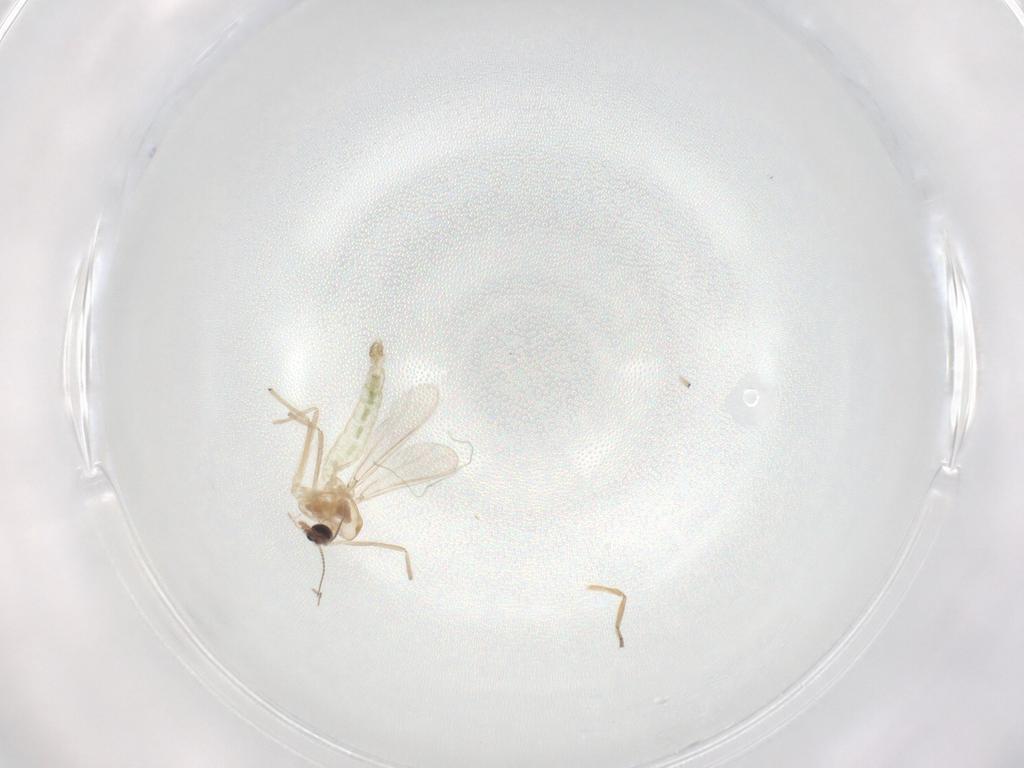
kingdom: Animalia
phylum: Arthropoda
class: Insecta
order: Diptera
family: Chironomidae
